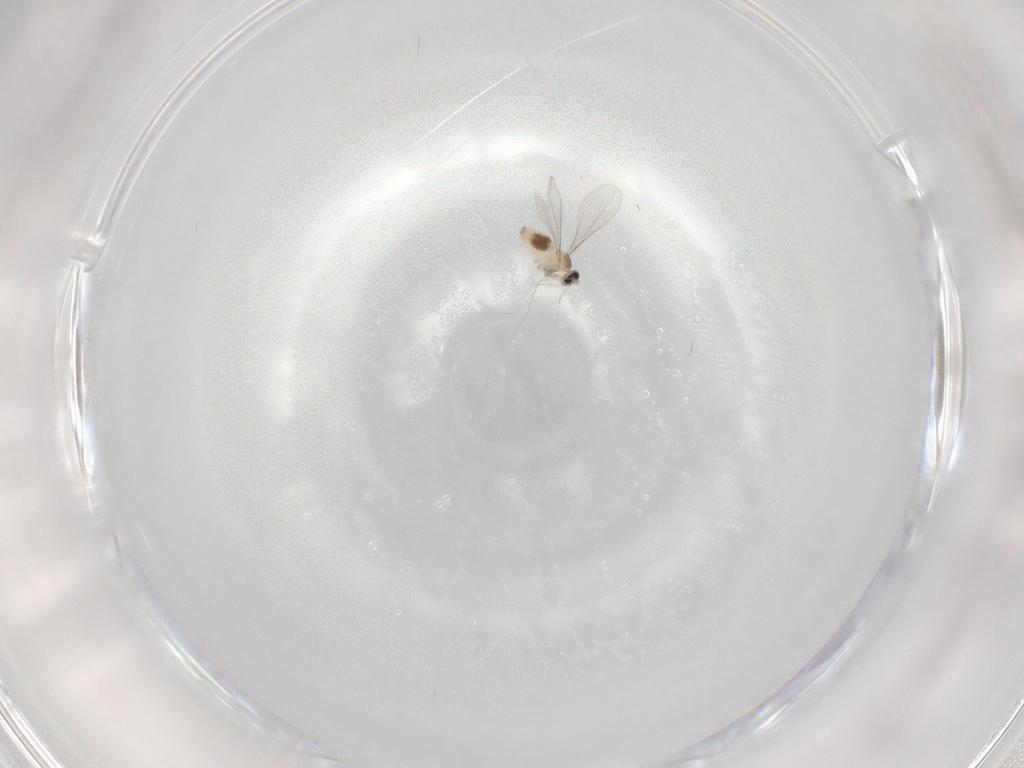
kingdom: Animalia
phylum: Arthropoda
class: Insecta
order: Diptera
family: Cecidomyiidae
